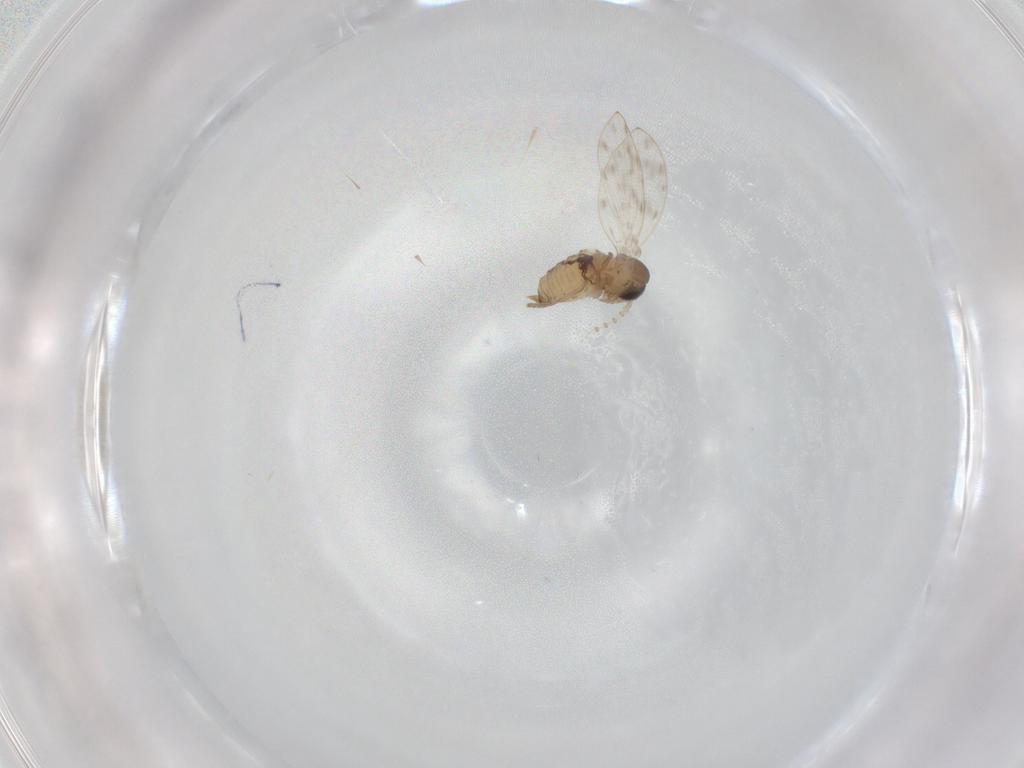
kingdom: Animalia
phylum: Arthropoda
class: Insecta
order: Diptera
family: Psychodidae
